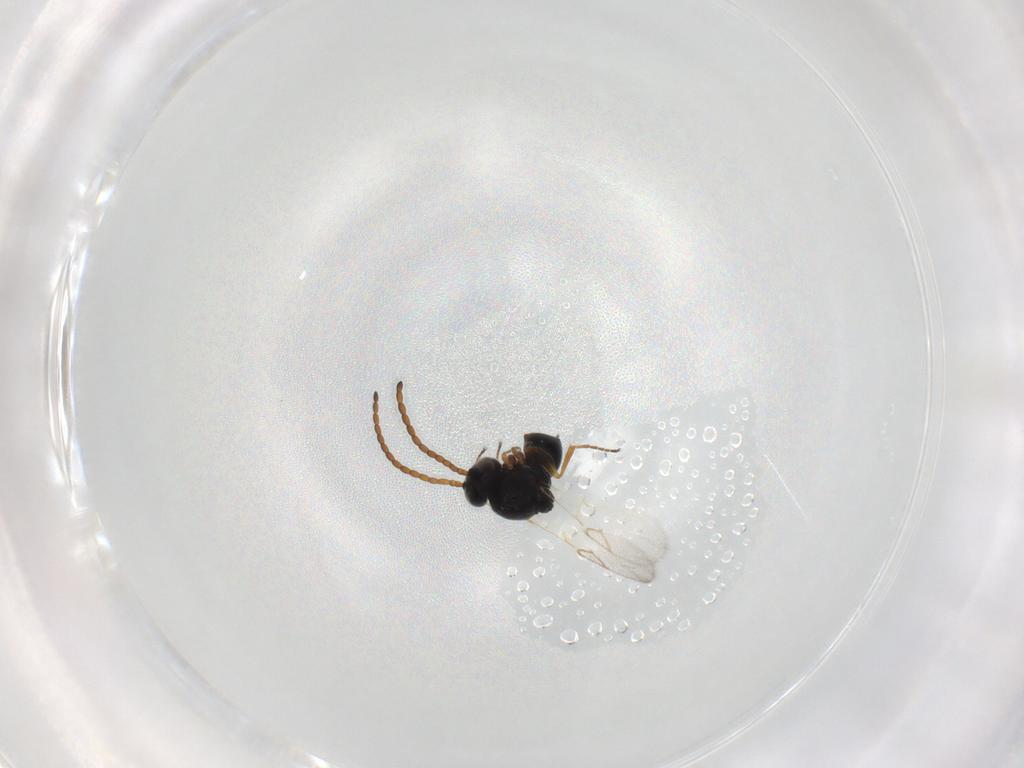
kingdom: Animalia
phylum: Arthropoda
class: Insecta
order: Hymenoptera
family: Figitidae
